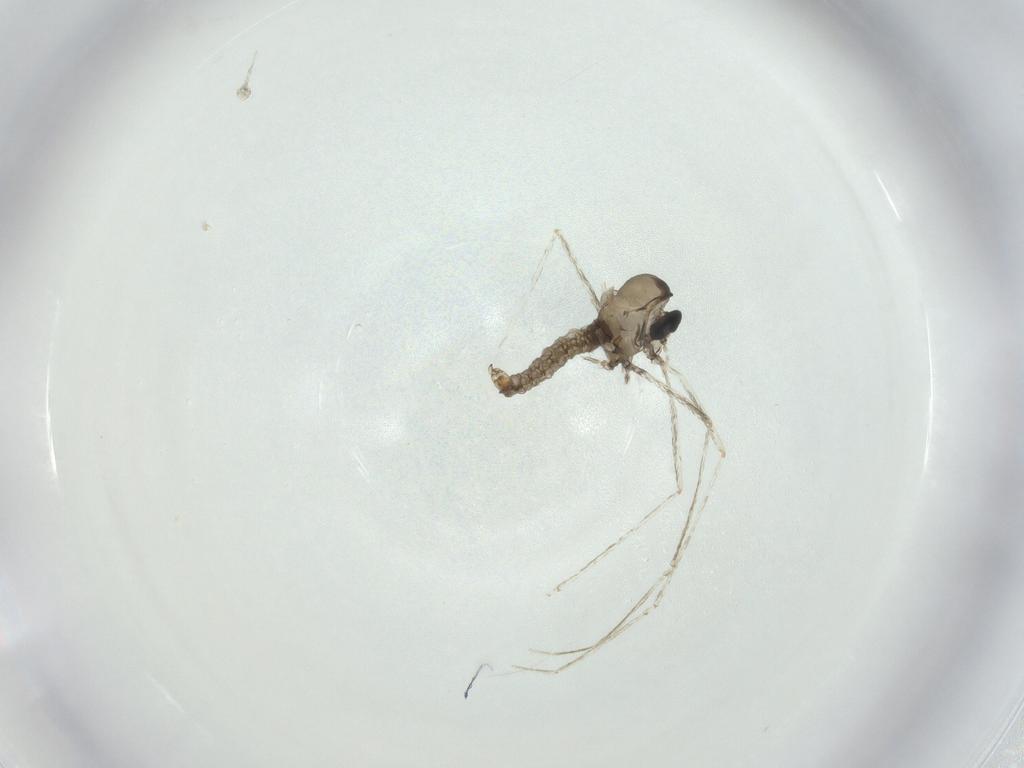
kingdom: Animalia
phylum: Arthropoda
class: Insecta
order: Diptera
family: Cecidomyiidae
